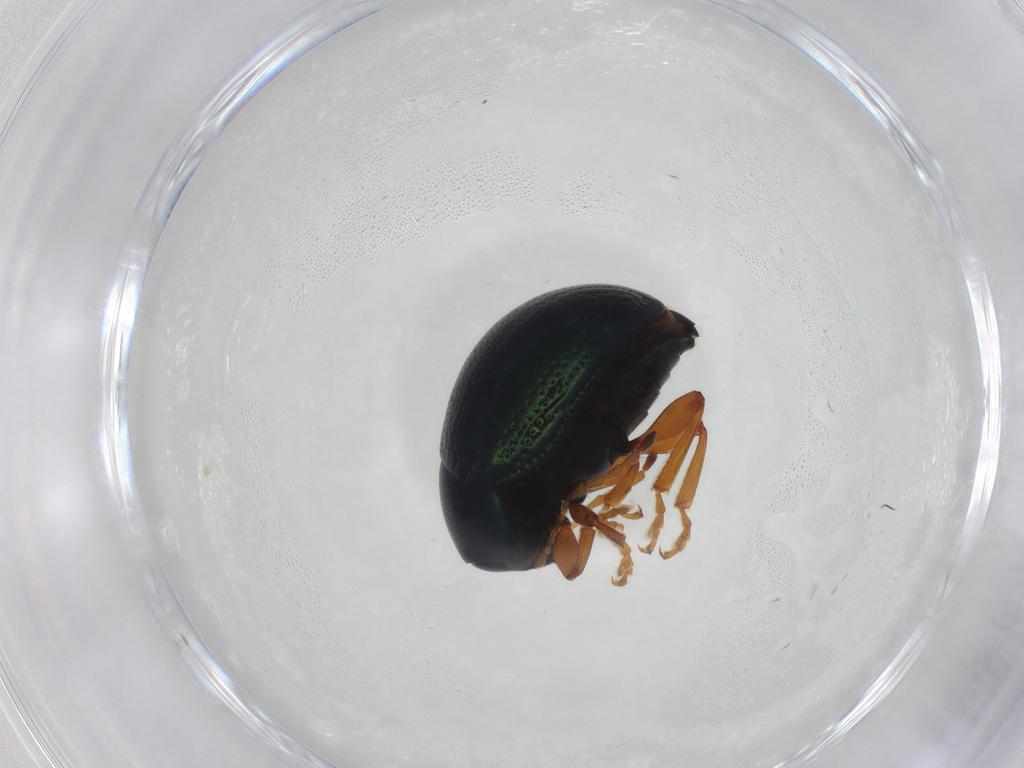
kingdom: Animalia
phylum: Arthropoda
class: Insecta
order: Coleoptera
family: Chrysomelidae
